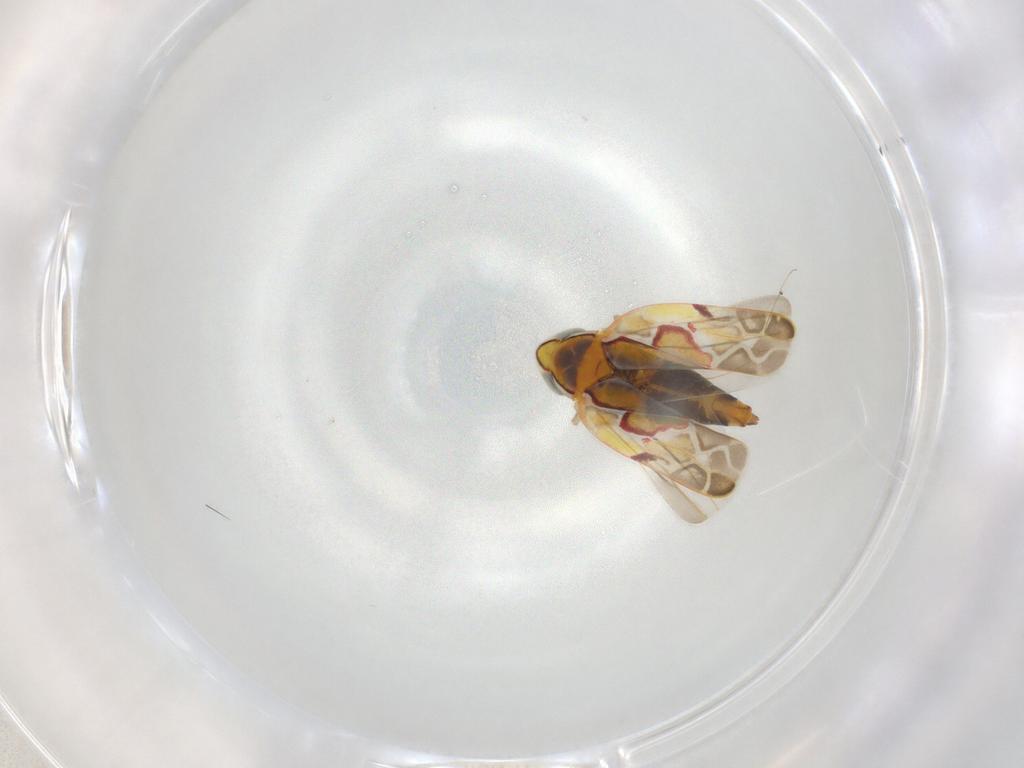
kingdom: Animalia
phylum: Arthropoda
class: Insecta
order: Hemiptera
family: Cicadellidae
